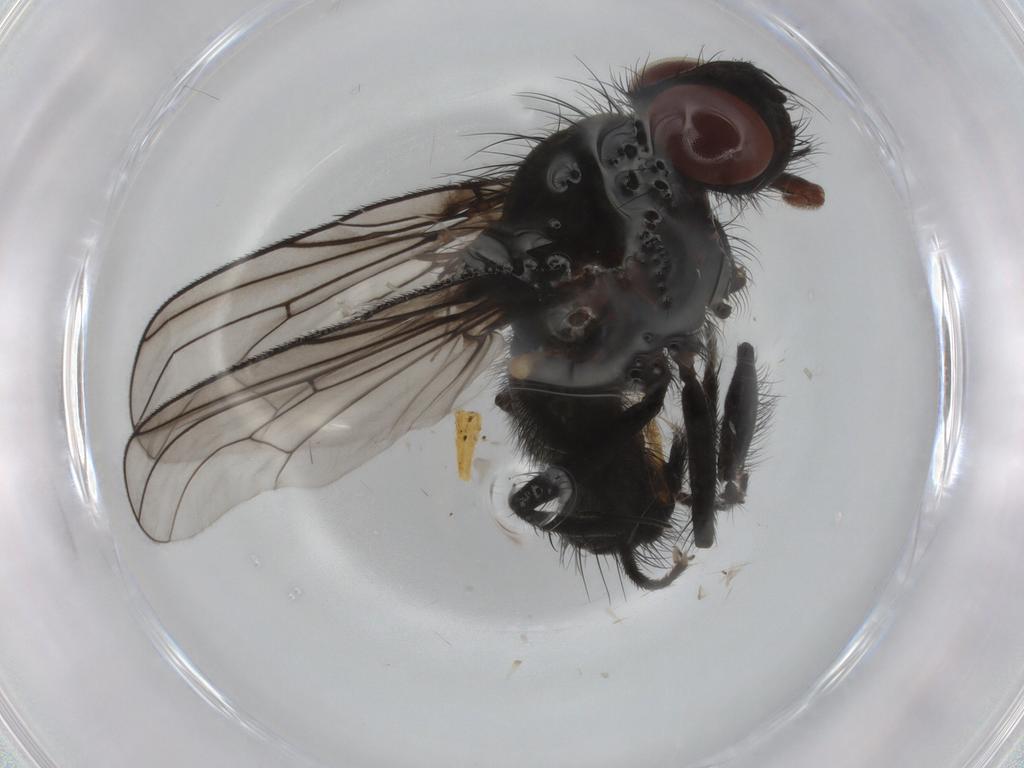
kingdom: Animalia
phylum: Arthropoda
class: Insecta
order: Diptera
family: Anthomyiidae
